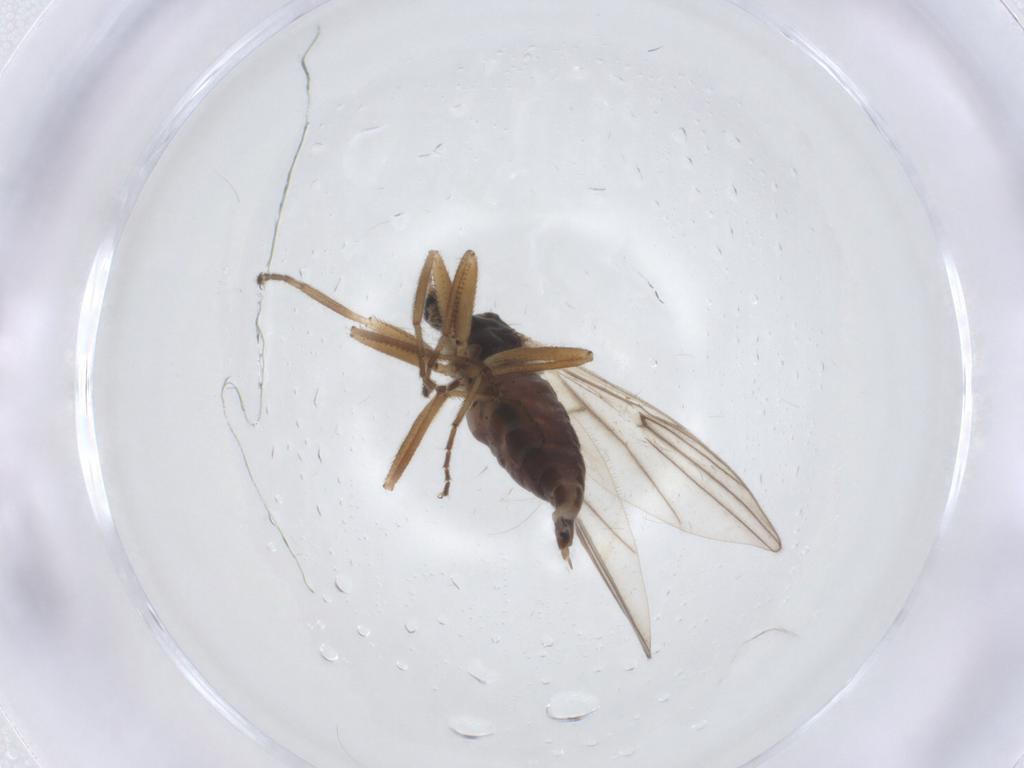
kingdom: Animalia
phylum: Arthropoda
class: Insecta
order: Diptera
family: Hybotidae
